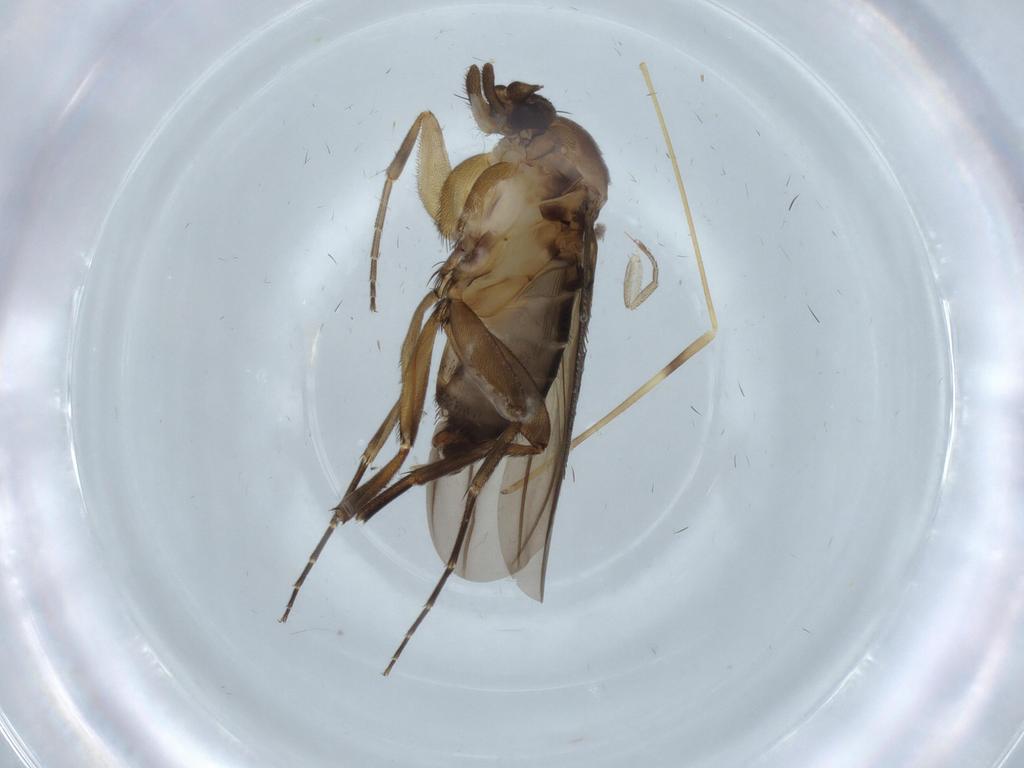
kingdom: Animalia
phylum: Arthropoda
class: Insecta
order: Diptera
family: Phoridae
